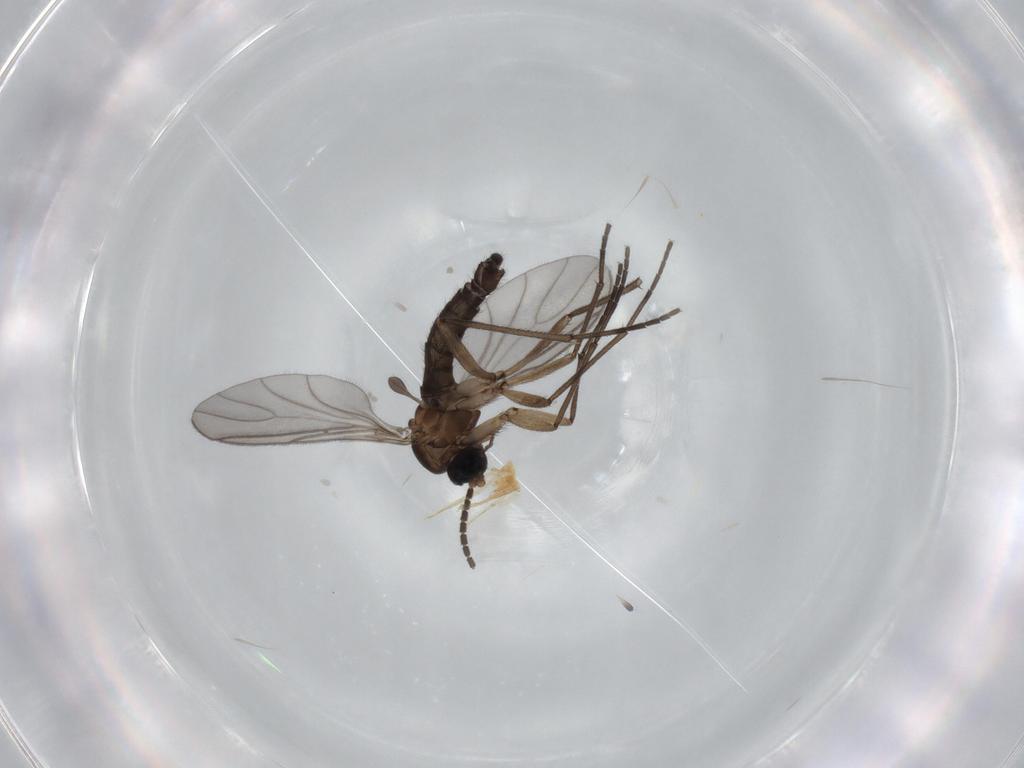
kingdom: Animalia
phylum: Arthropoda
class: Insecta
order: Diptera
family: Sciaridae
